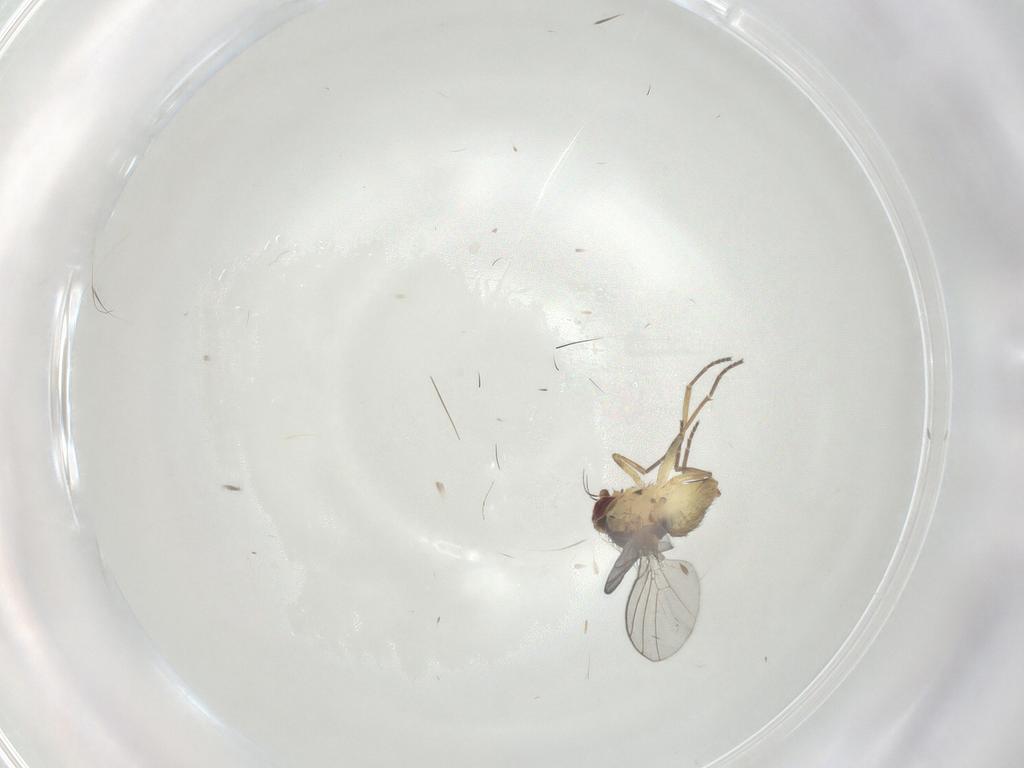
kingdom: Animalia
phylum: Arthropoda
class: Insecta
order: Diptera
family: Agromyzidae
